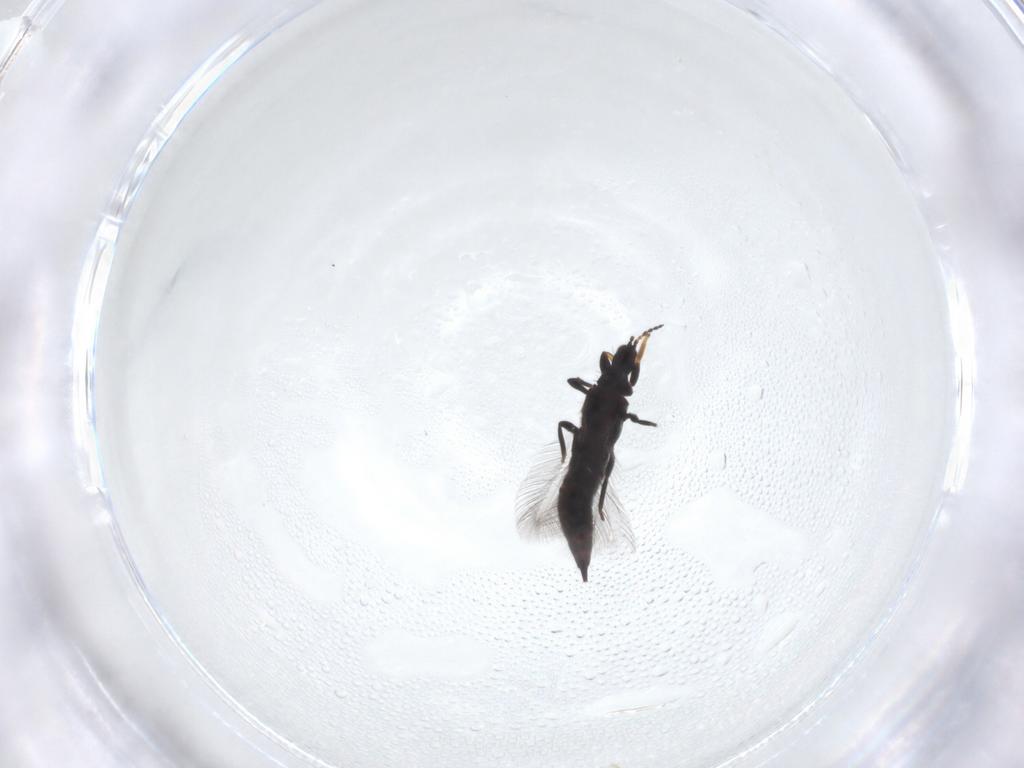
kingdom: Animalia
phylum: Arthropoda
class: Insecta
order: Thysanoptera
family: Phlaeothripidae
